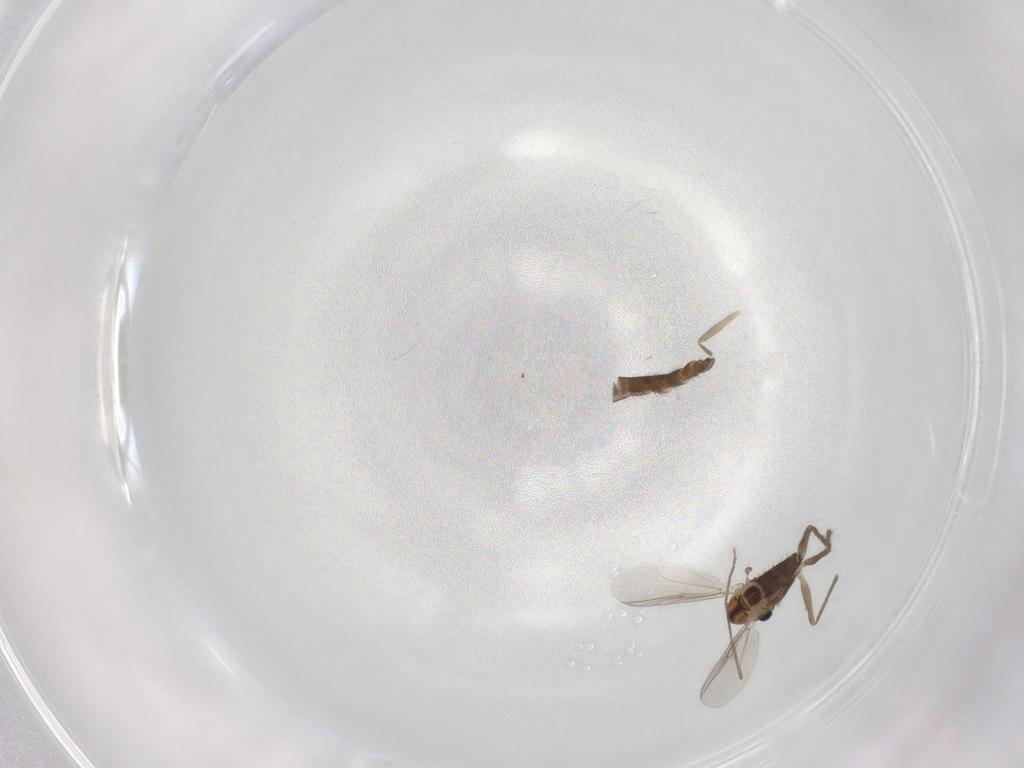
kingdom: Animalia
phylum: Arthropoda
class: Insecta
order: Diptera
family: Chironomidae
